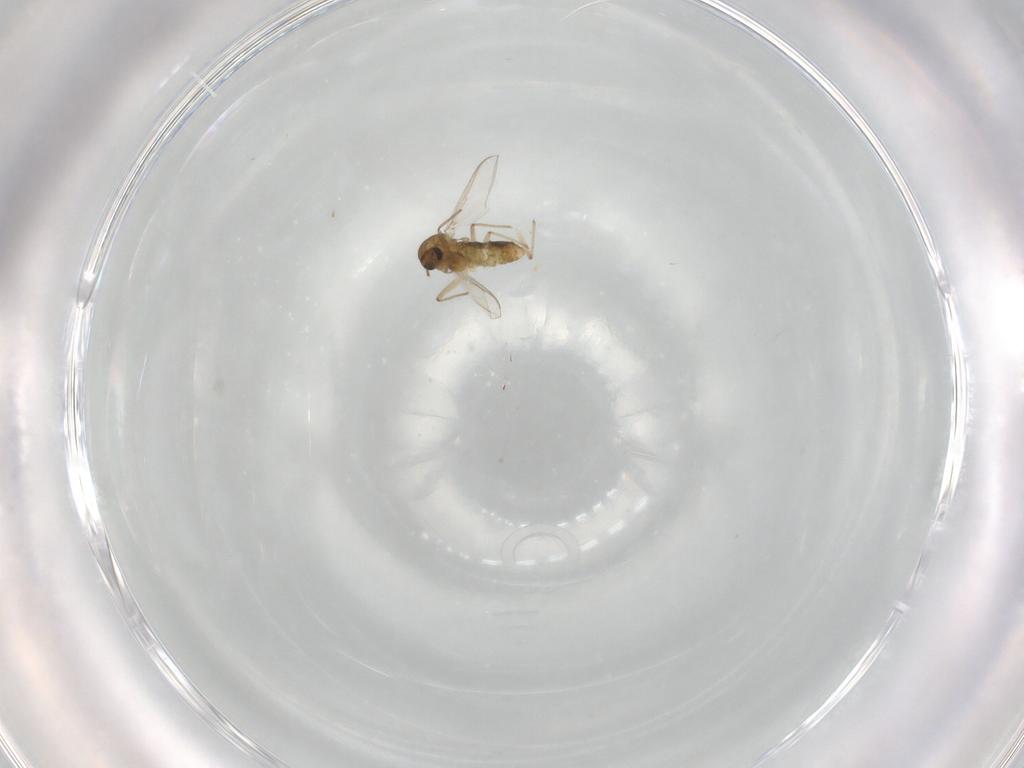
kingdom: Animalia
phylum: Arthropoda
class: Insecta
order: Diptera
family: Chironomidae
